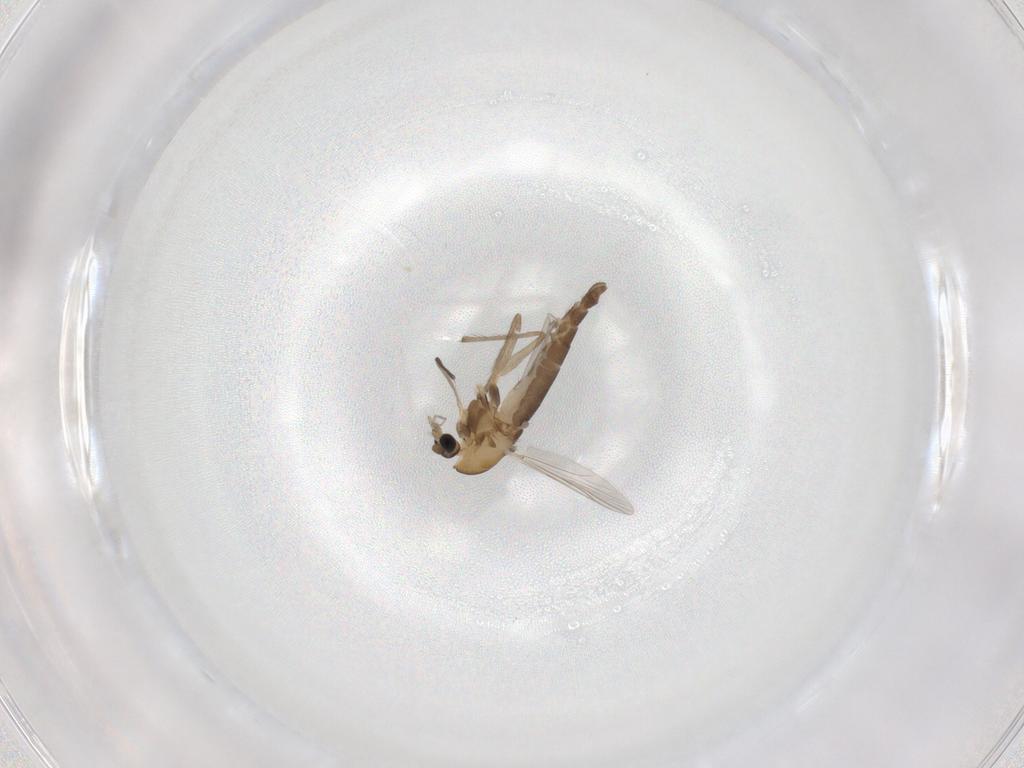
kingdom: Animalia
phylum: Arthropoda
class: Insecta
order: Diptera
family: Chironomidae
